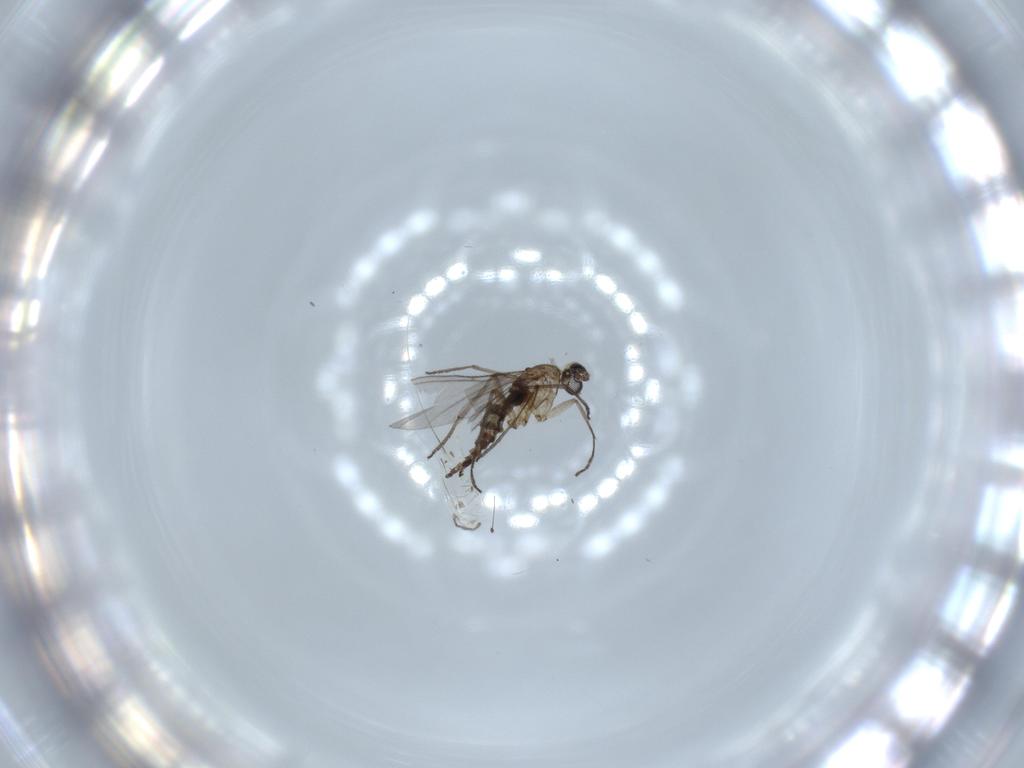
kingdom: Animalia
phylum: Arthropoda
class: Insecta
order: Diptera
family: Sciaridae
